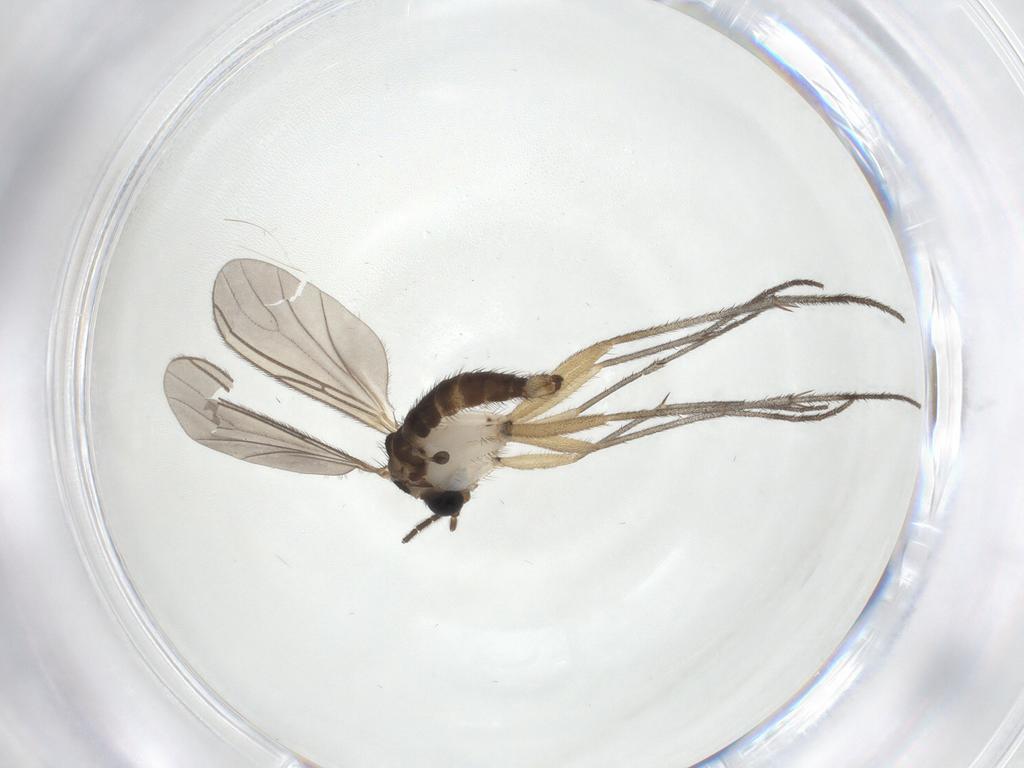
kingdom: Animalia
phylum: Arthropoda
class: Insecta
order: Diptera
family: Sciaridae
